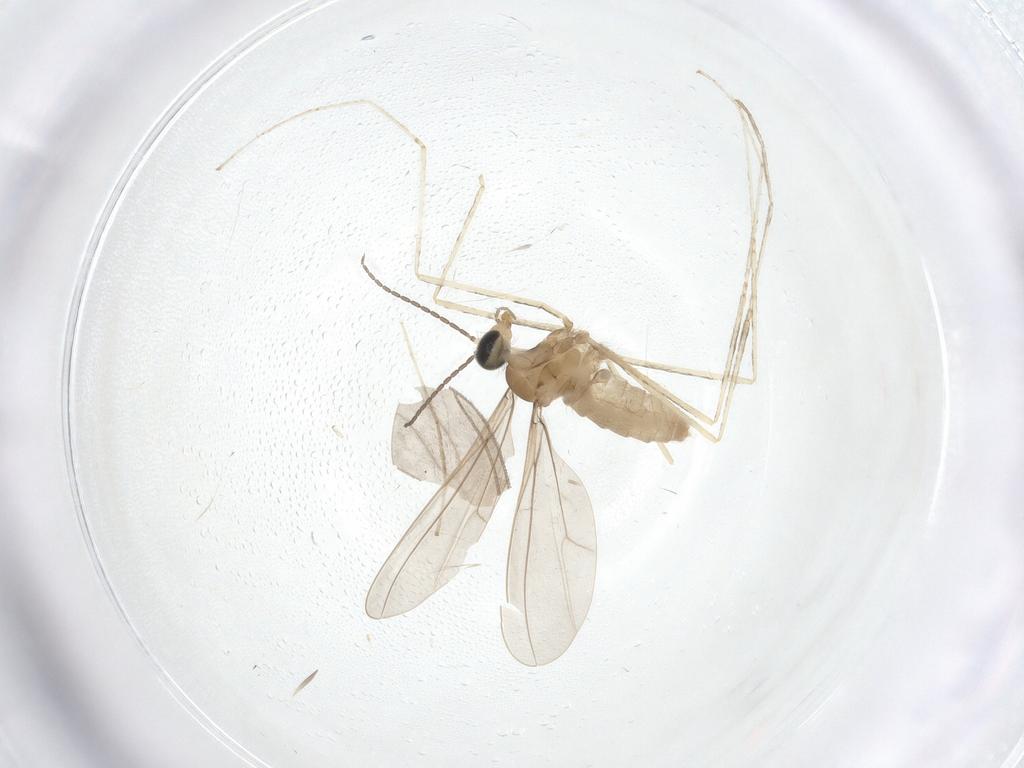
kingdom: Animalia
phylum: Arthropoda
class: Insecta
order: Diptera
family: Cecidomyiidae
